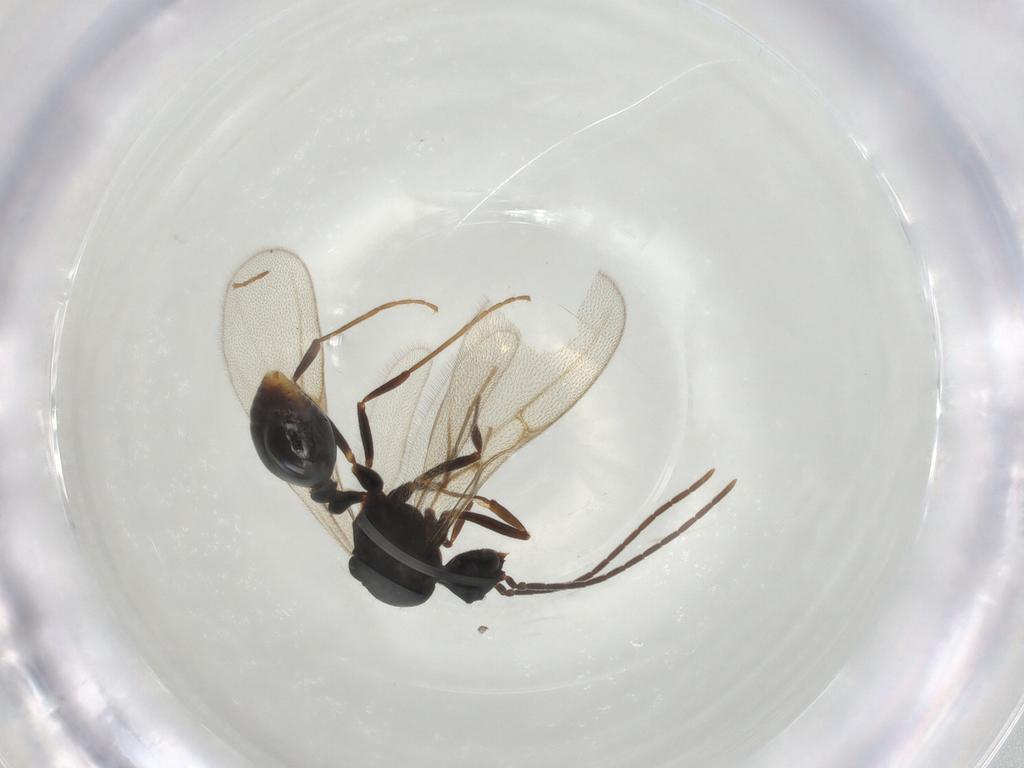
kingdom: Animalia
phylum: Arthropoda
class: Insecta
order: Hymenoptera
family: Formicidae
